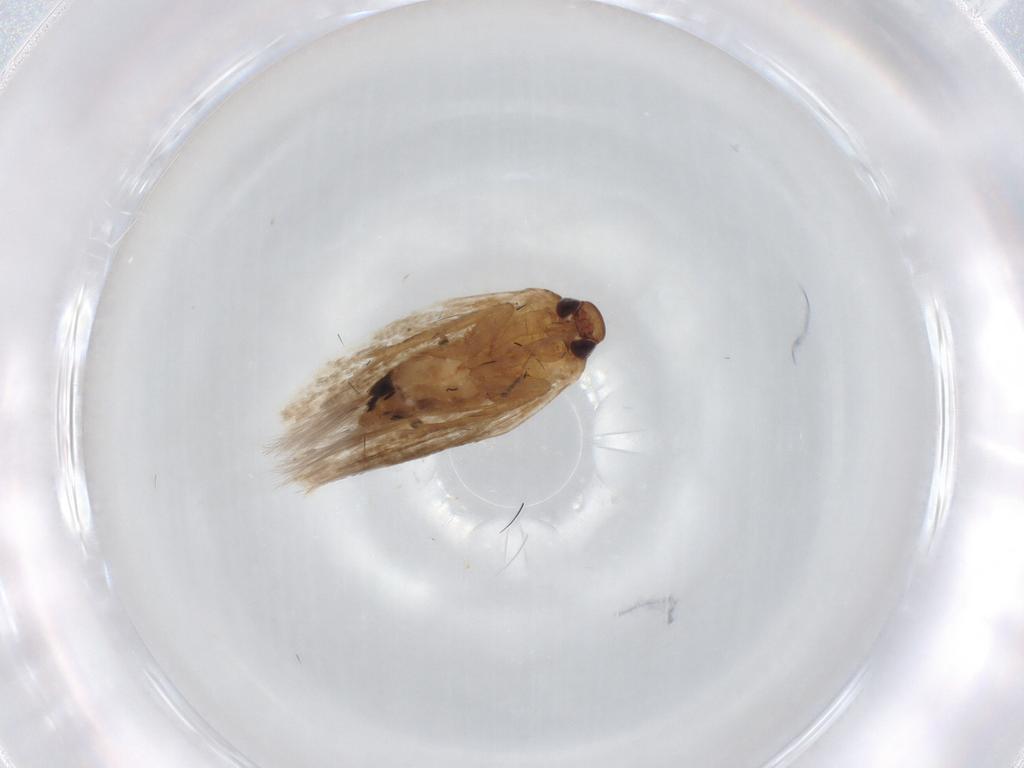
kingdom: Animalia
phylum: Arthropoda
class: Insecta
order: Lepidoptera
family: Cosmopterigidae
